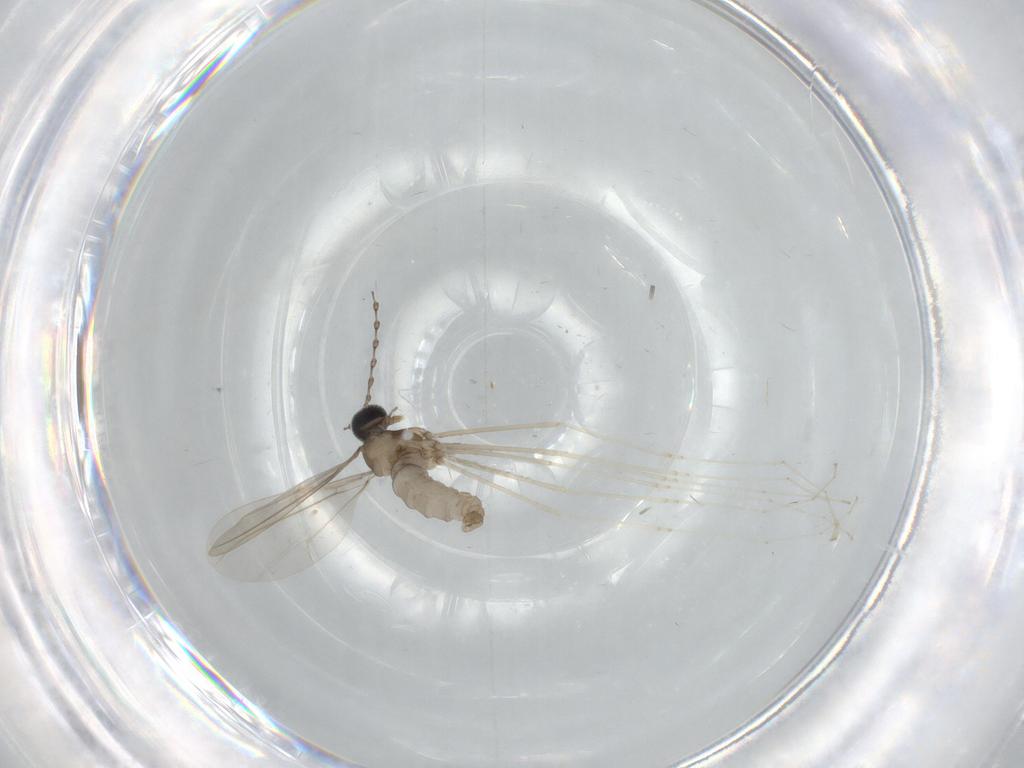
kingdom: Animalia
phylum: Arthropoda
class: Insecta
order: Diptera
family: Cecidomyiidae
